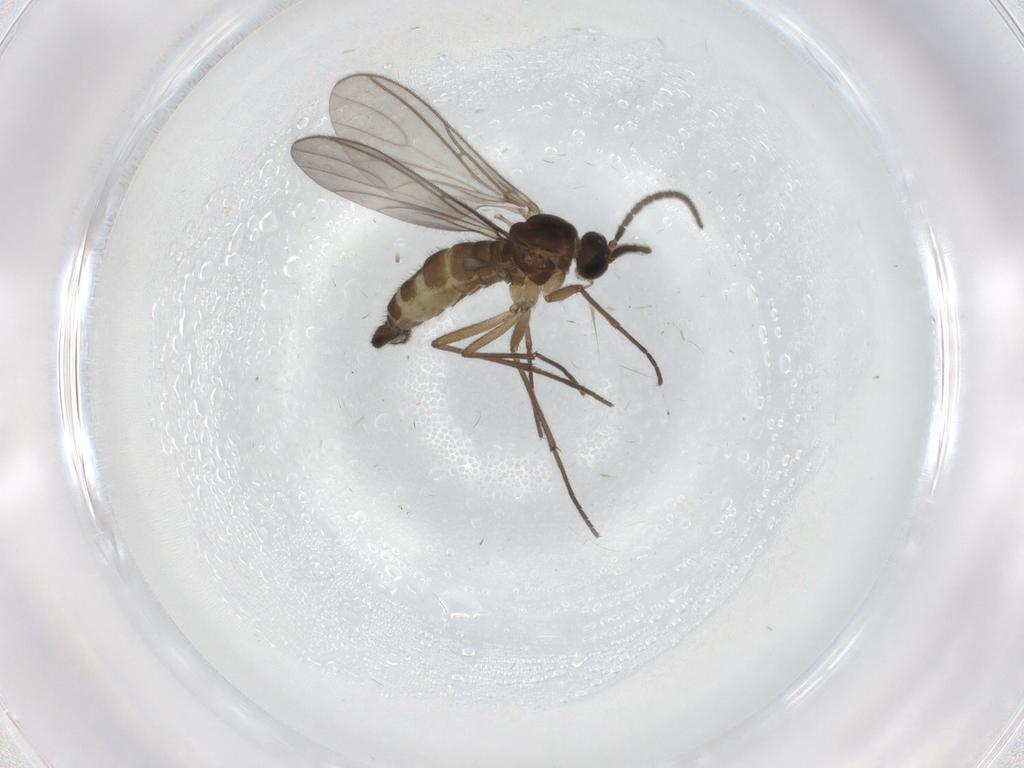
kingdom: Animalia
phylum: Arthropoda
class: Insecta
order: Diptera
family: Sciaridae
